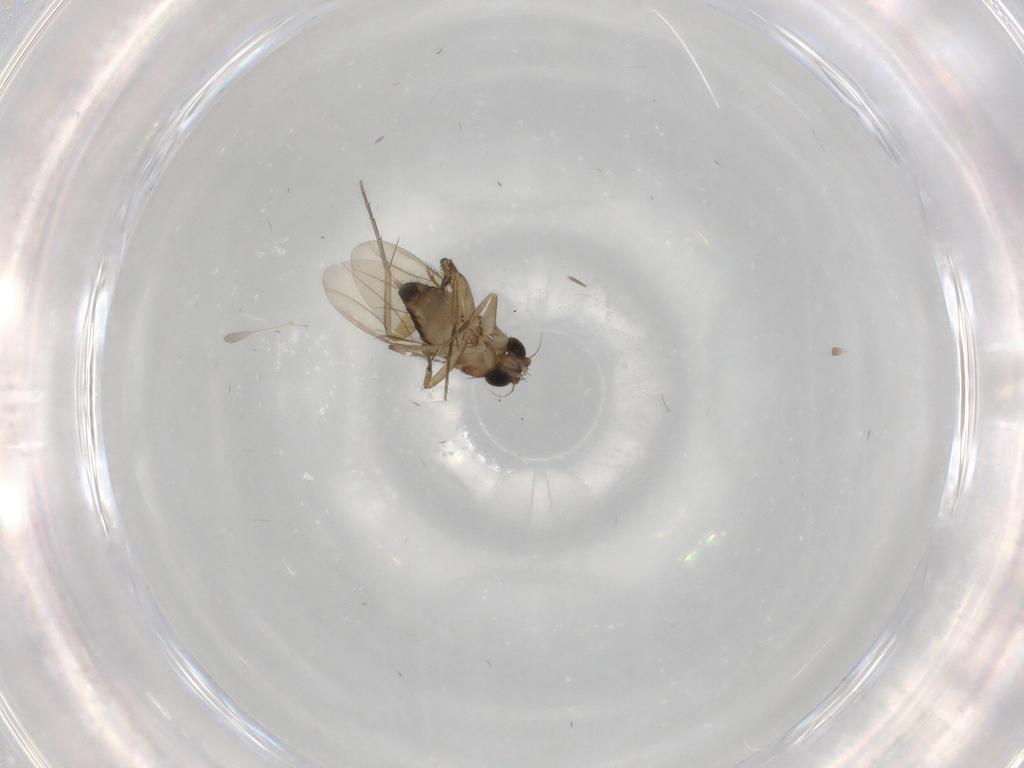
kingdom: Animalia
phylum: Arthropoda
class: Insecta
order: Diptera
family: Phoridae
